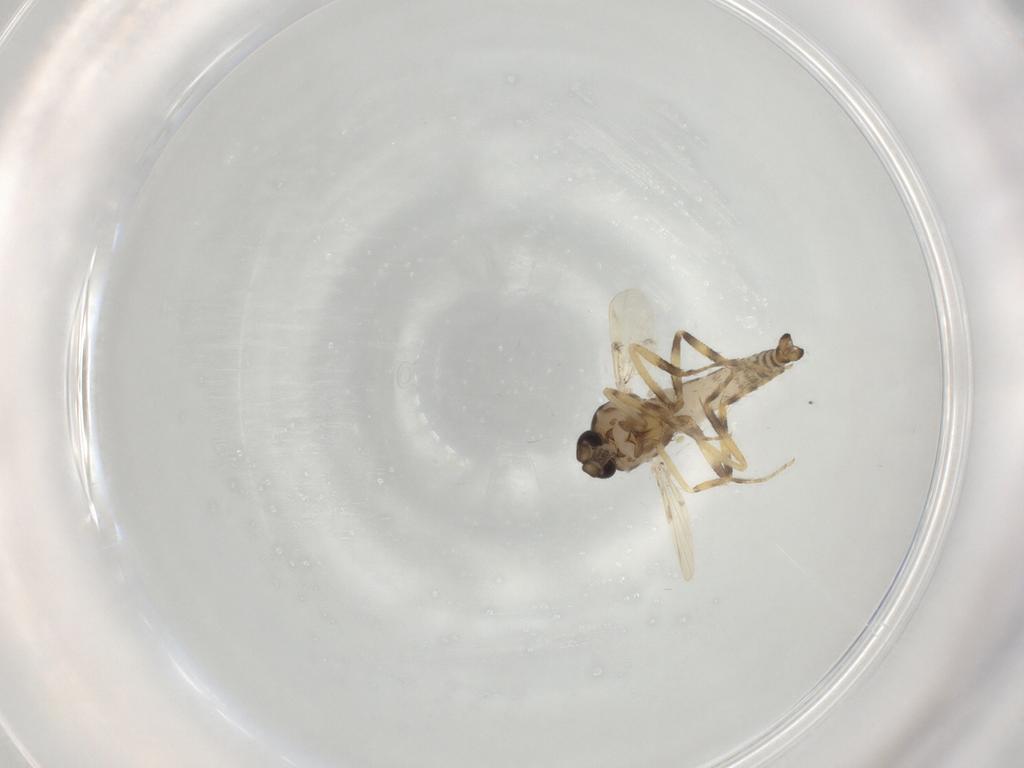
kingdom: Animalia
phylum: Arthropoda
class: Insecta
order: Diptera
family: Ceratopogonidae
